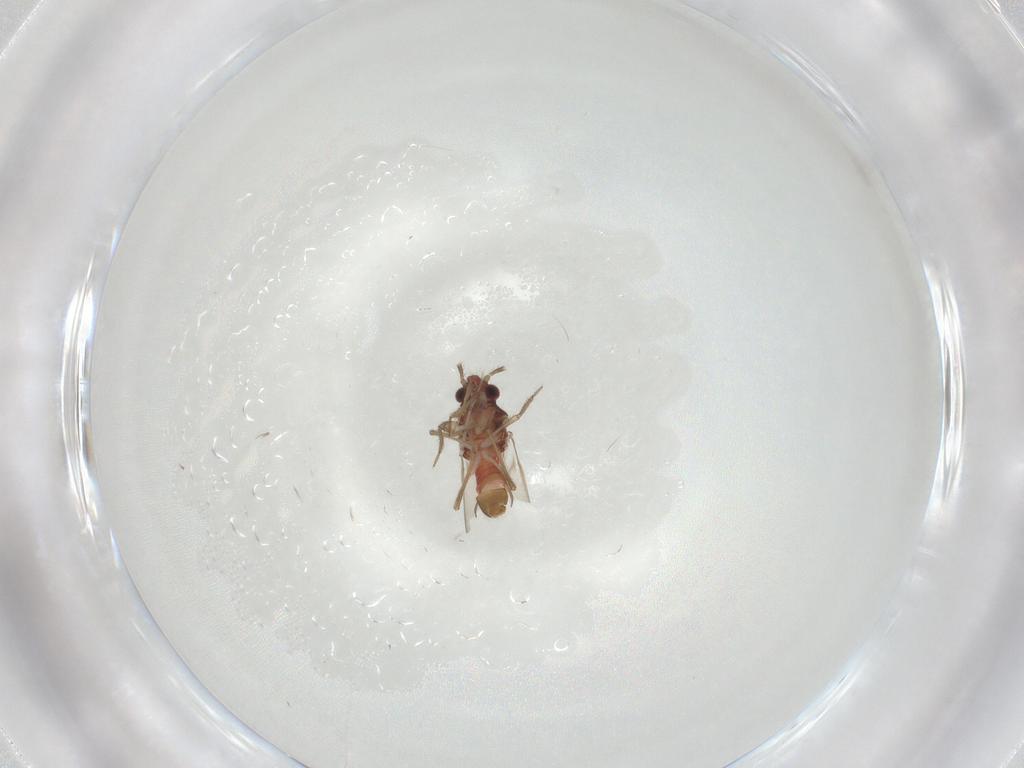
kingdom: Animalia
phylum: Arthropoda
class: Insecta
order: Hemiptera
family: Ceratocombidae
